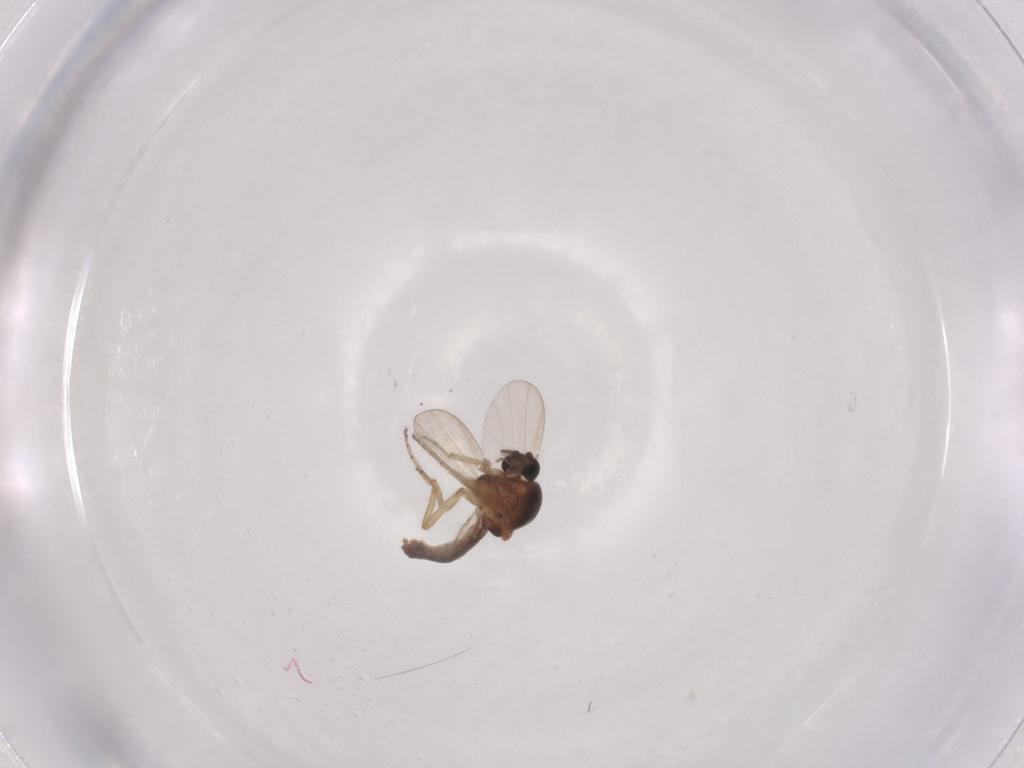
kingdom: Animalia
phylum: Arthropoda
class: Insecta
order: Diptera
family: Ceratopogonidae
